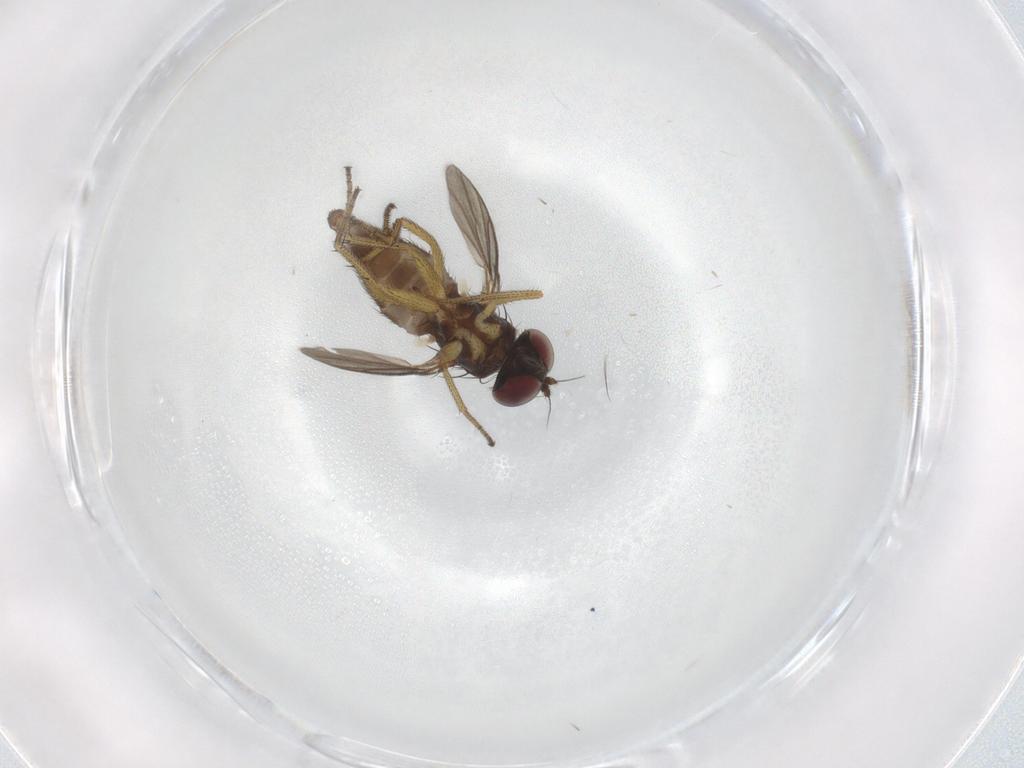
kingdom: Animalia
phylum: Arthropoda
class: Insecta
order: Diptera
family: Dolichopodidae
